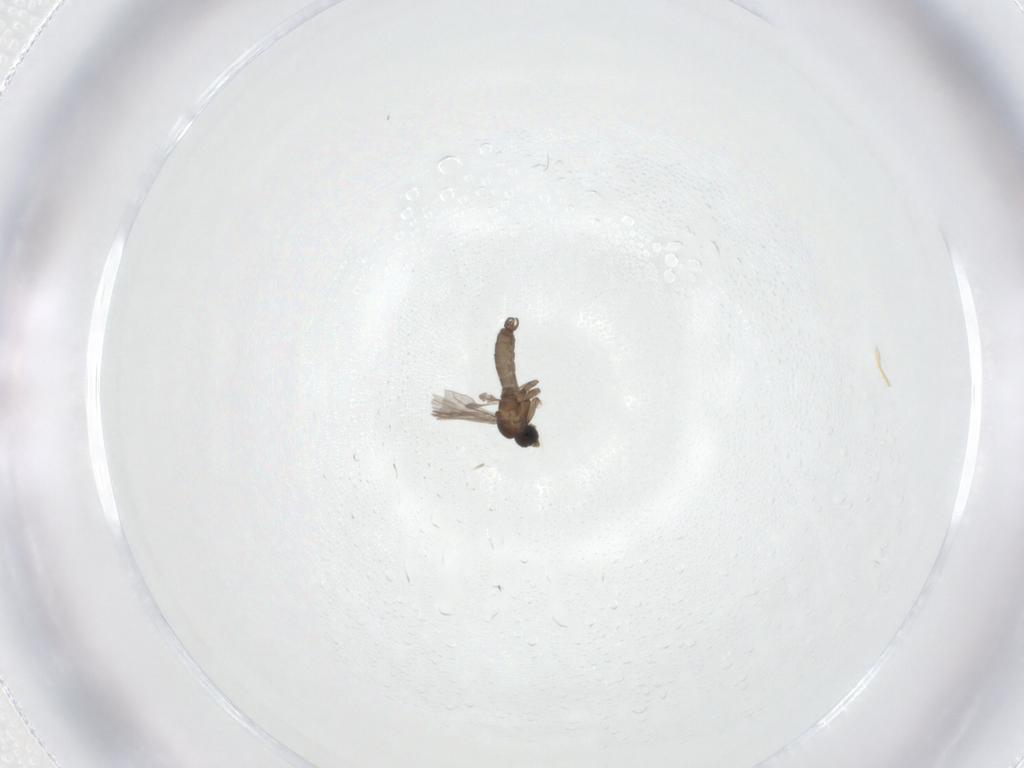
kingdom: Animalia
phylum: Arthropoda
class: Insecta
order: Diptera
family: Sciaridae
